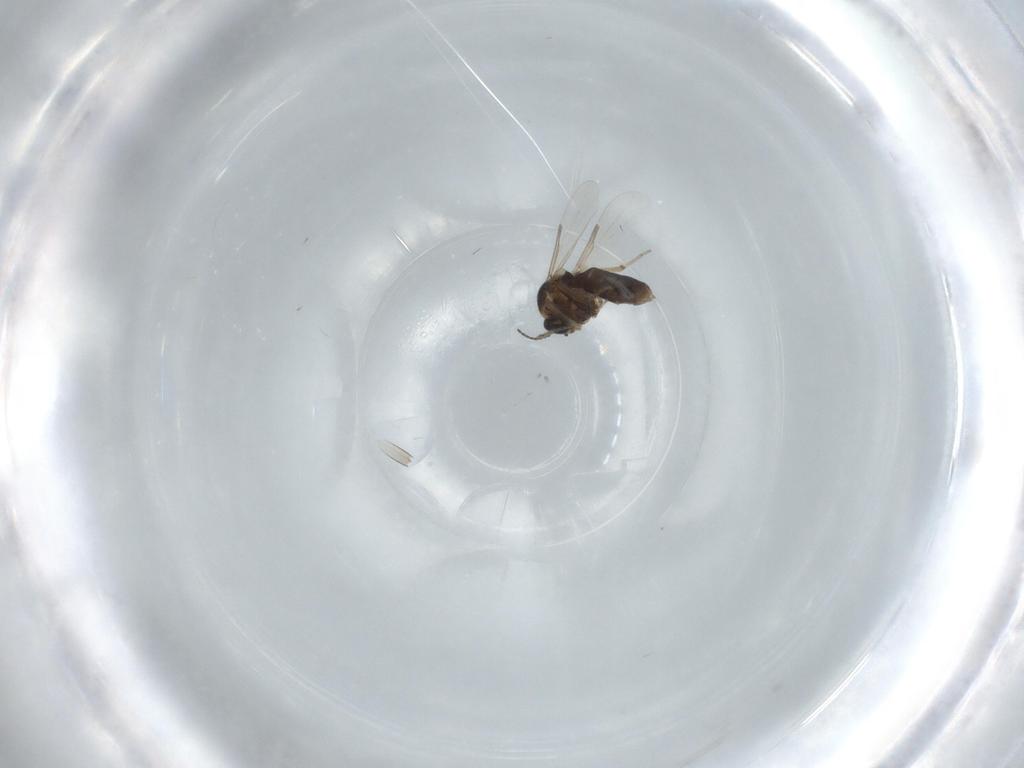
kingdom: Animalia
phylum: Arthropoda
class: Insecta
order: Diptera
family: Ceratopogonidae
